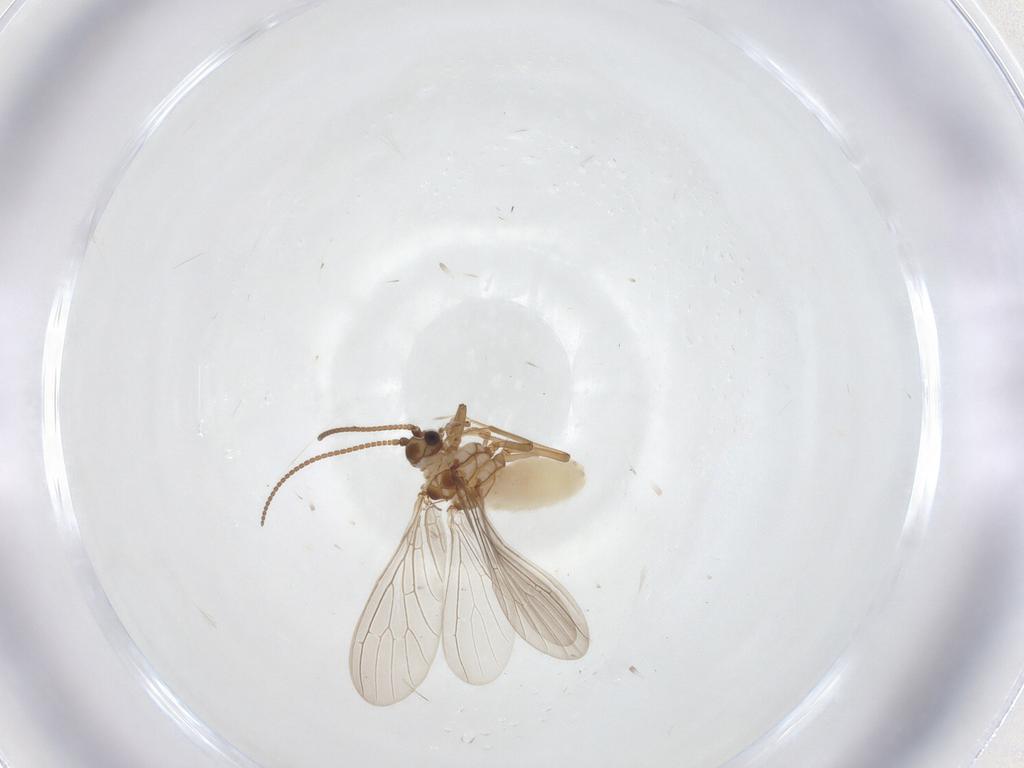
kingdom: Animalia
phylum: Arthropoda
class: Insecta
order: Neuroptera
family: Coniopterygidae
